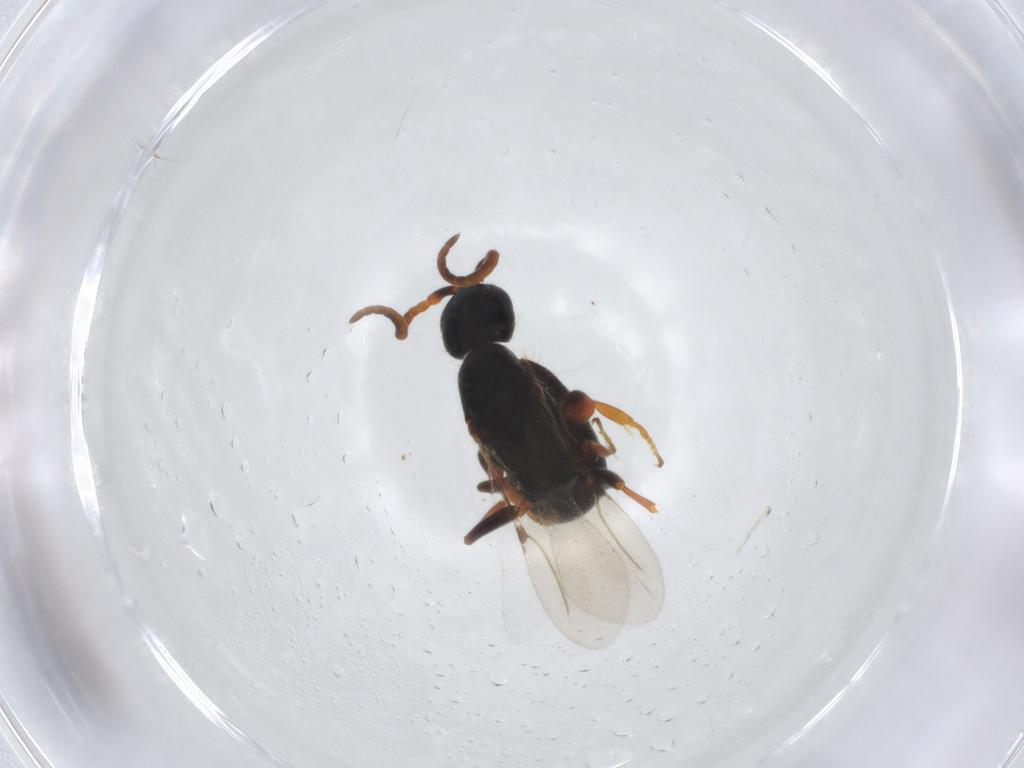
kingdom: Animalia
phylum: Arthropoda
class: Insecta
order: Hymenoptera
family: Bethylidae
